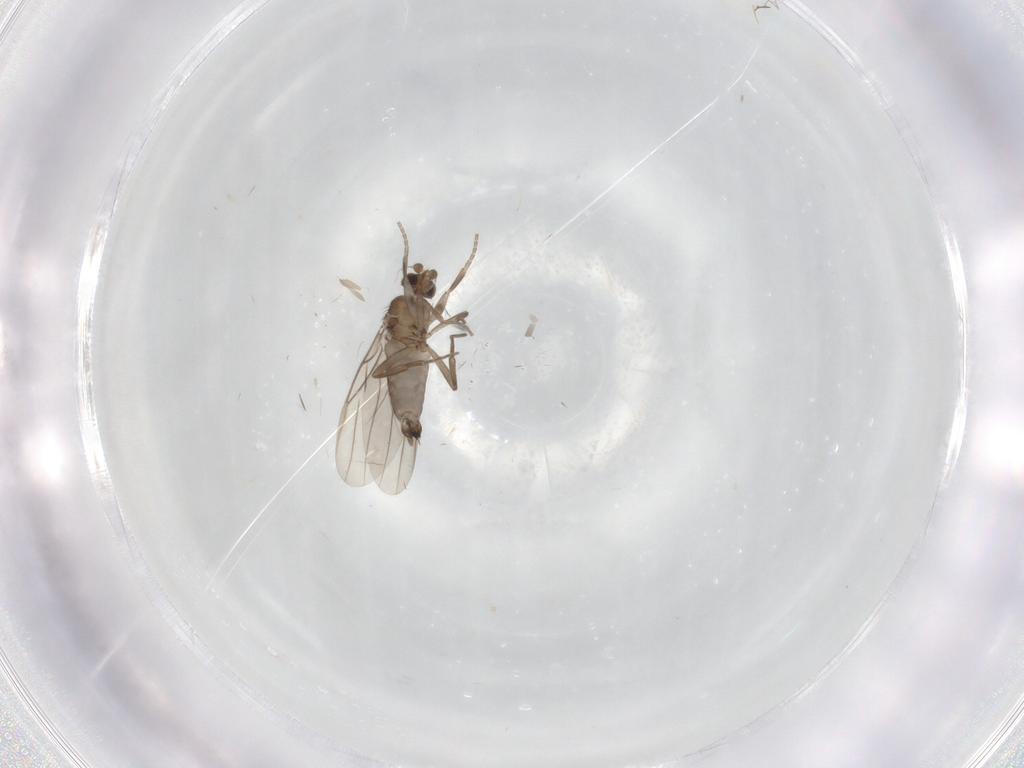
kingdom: Animalia
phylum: Arthropoda
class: Insecta
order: Diptera
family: Phoridae
